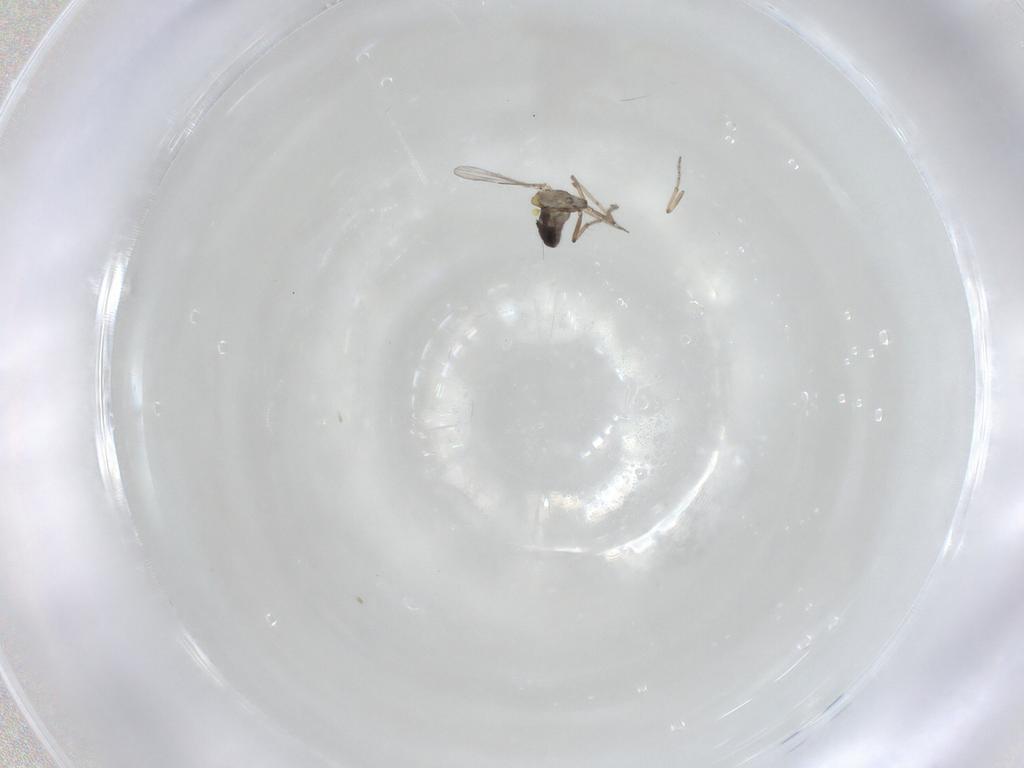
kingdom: Animalia
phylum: Arthropoda
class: Insecta
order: Diptera
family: Ceratopogonidae
